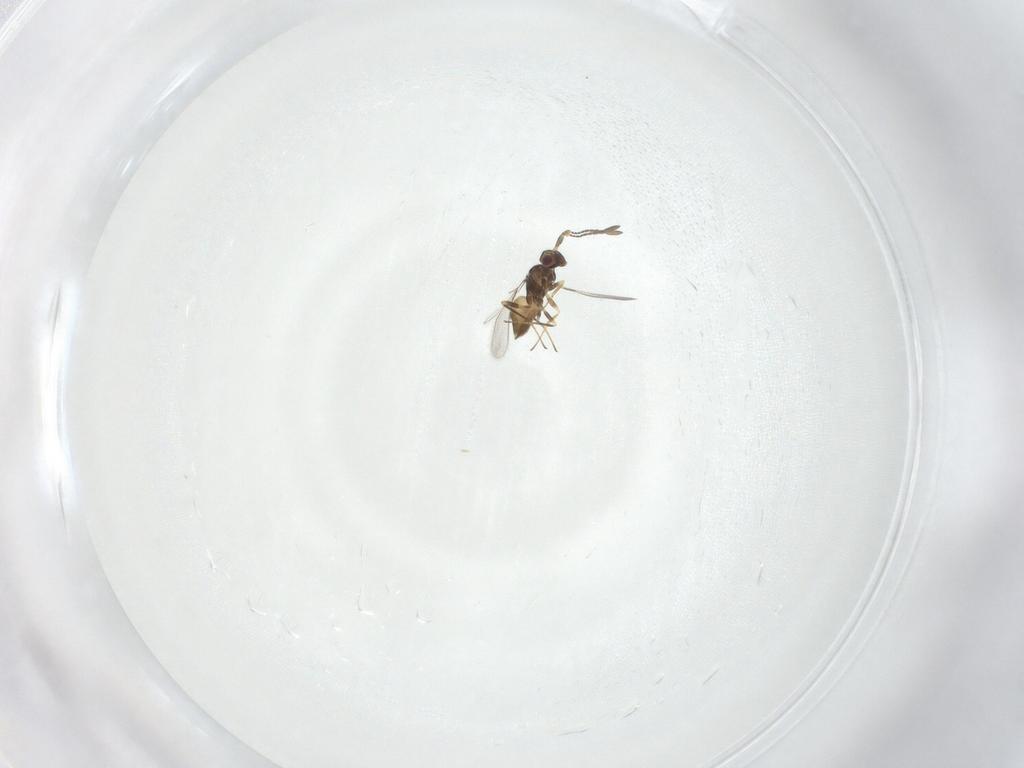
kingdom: Animalia
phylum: Arthropoda
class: Insecta
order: Hymenoptera
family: Mymaridae
